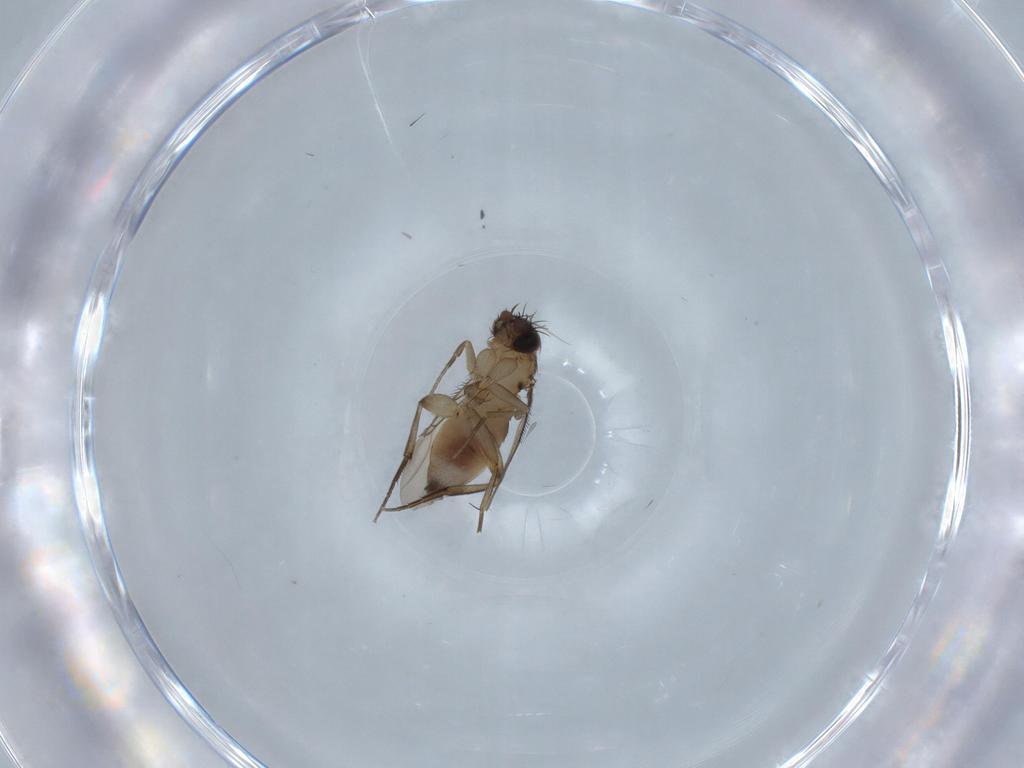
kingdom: Animalia
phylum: Arthropoda
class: Insecta
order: Diptera
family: Phoridae
